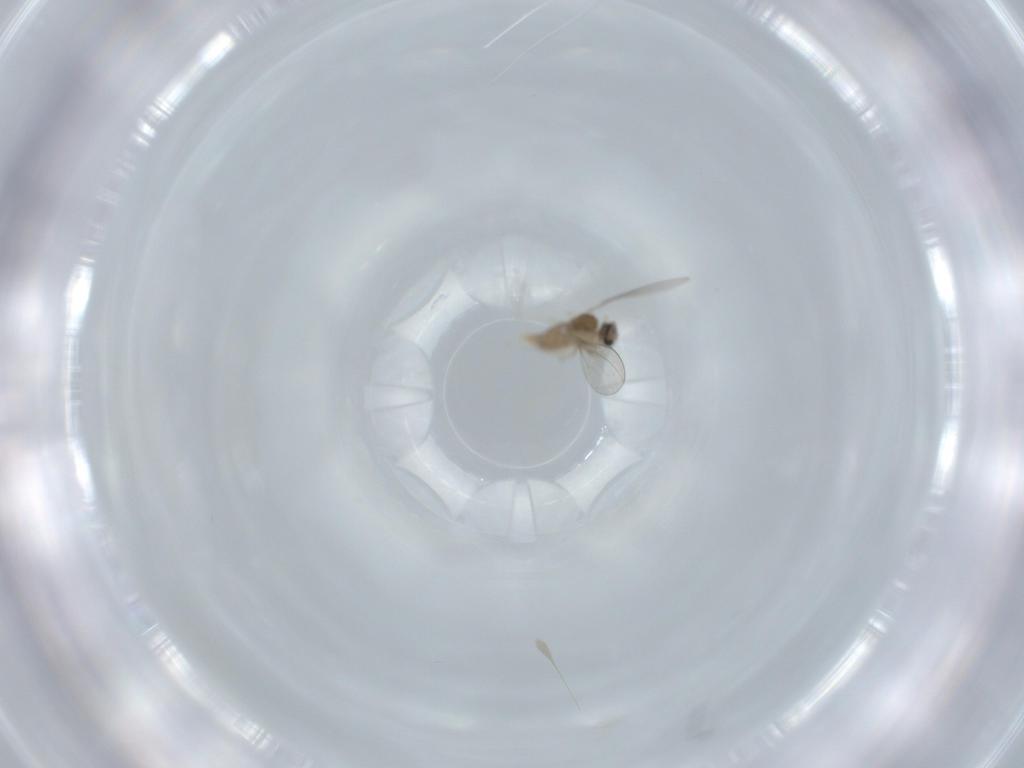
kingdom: Animalia
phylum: Arthropoda
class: Insecta
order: Diptera
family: Cecidomyiidae
